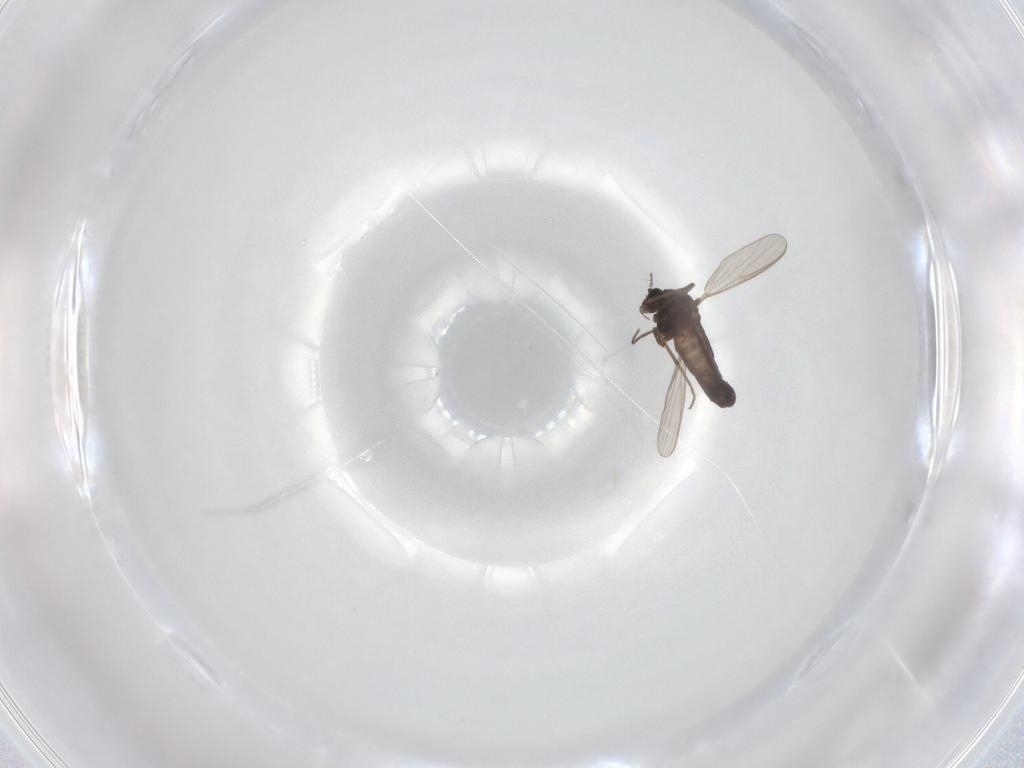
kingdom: Animalia
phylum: Arthropoda
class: Insecta
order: Diptera
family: Chironomidae
